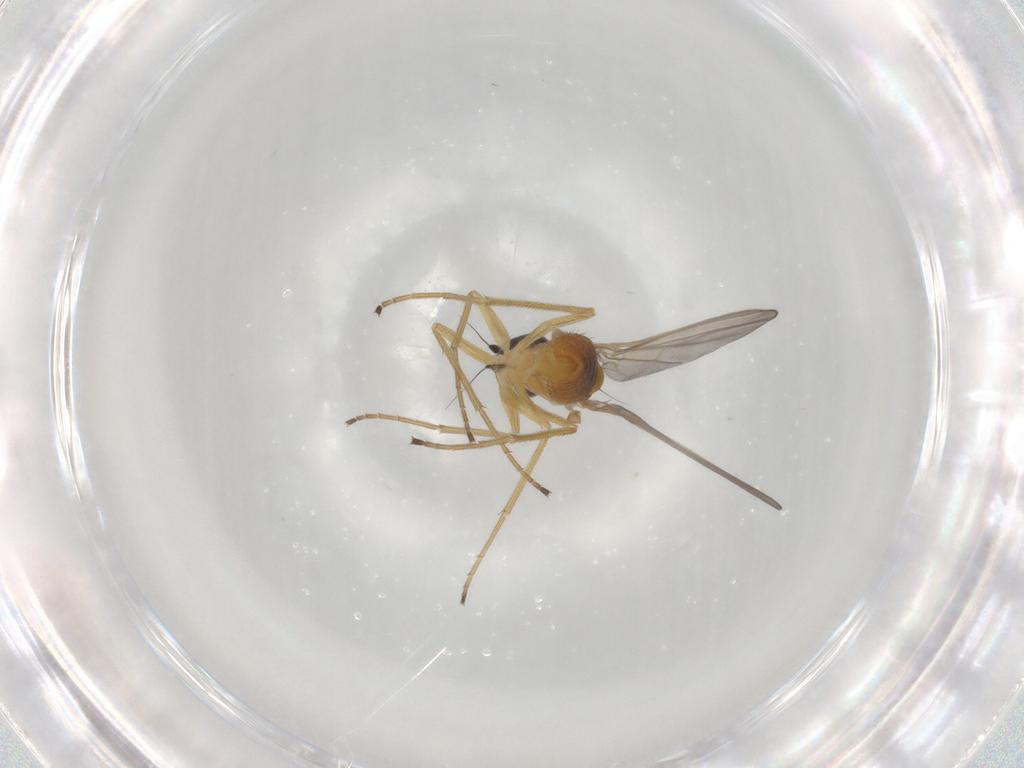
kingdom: Animalia
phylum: Arthropoda
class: Insecta
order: Diptera
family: Dolichopodidae
